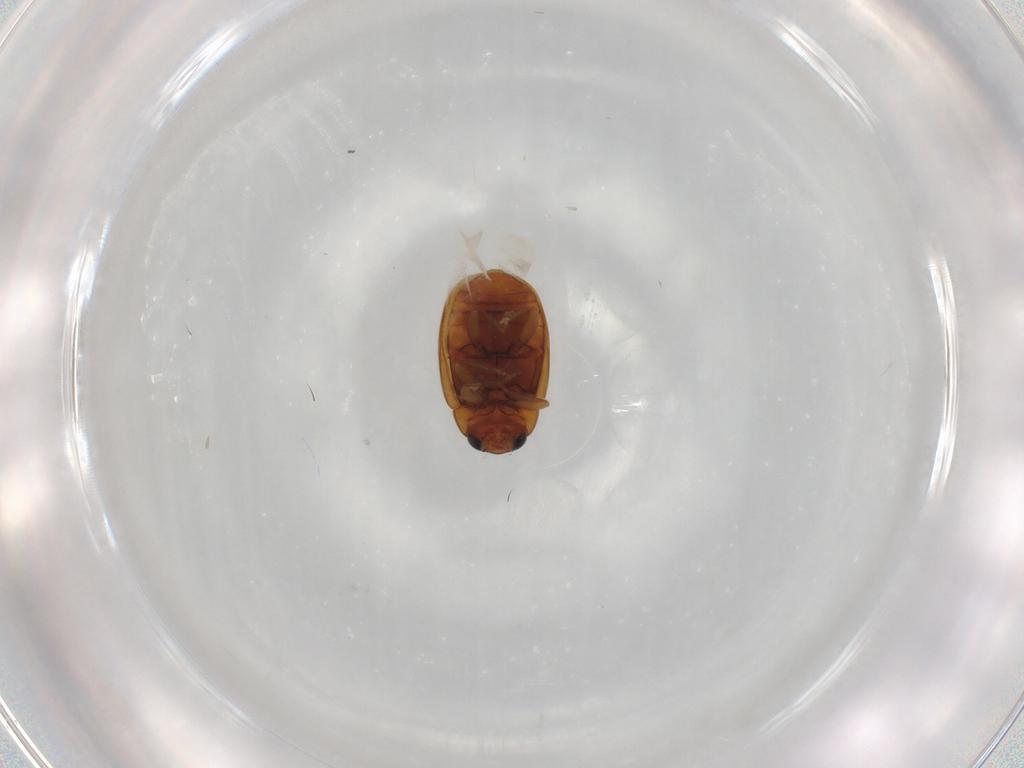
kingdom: Animalia
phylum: Arthropoda
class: Insecta
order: Coleoptera
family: Coccinellidae
